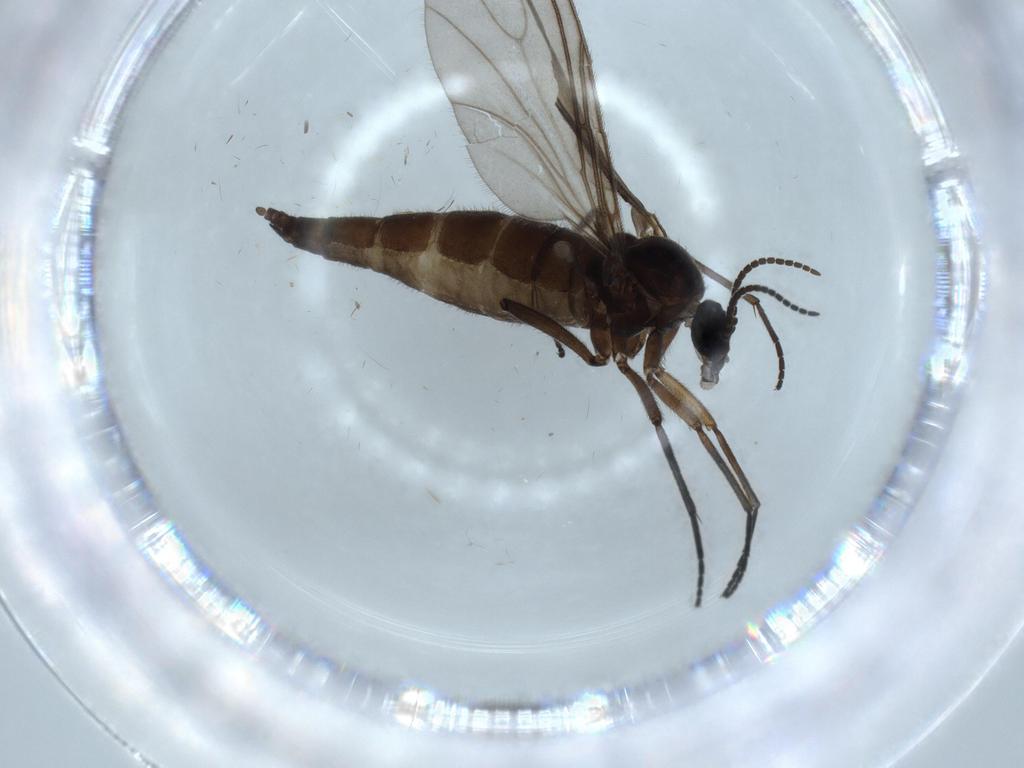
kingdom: Animalia
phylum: Arthropoda
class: Insecta
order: Diptera
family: Sciaridae
